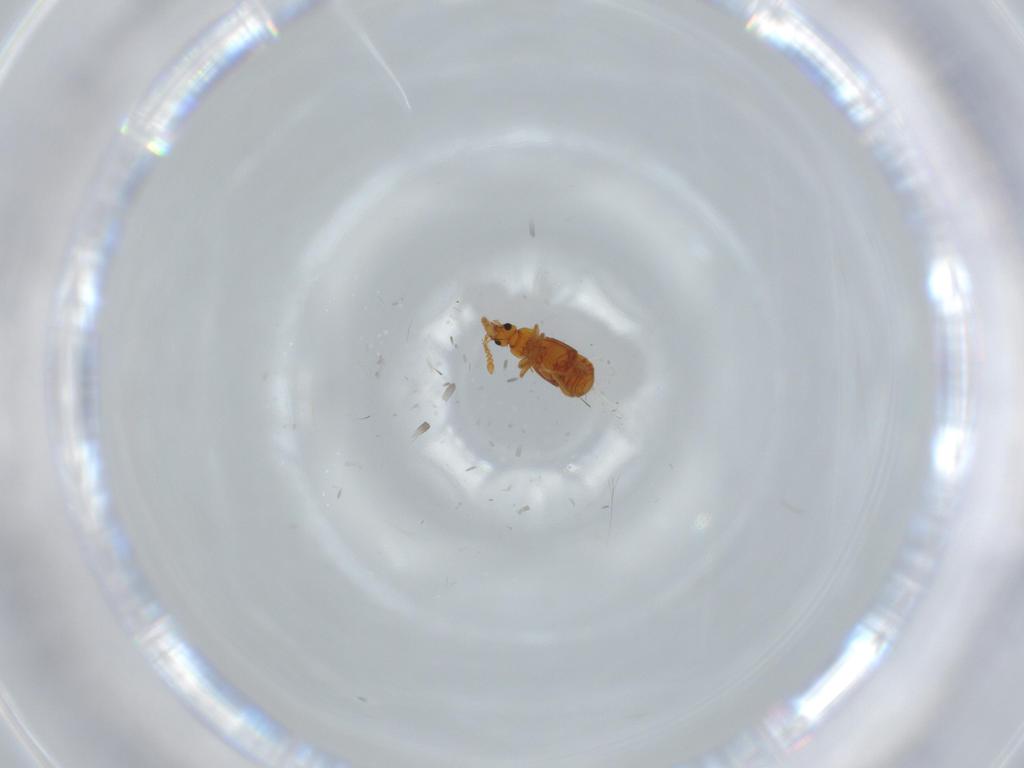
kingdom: Animalia
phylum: Arthropoda
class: Insecta
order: Coleoptera
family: Staphylinidae
